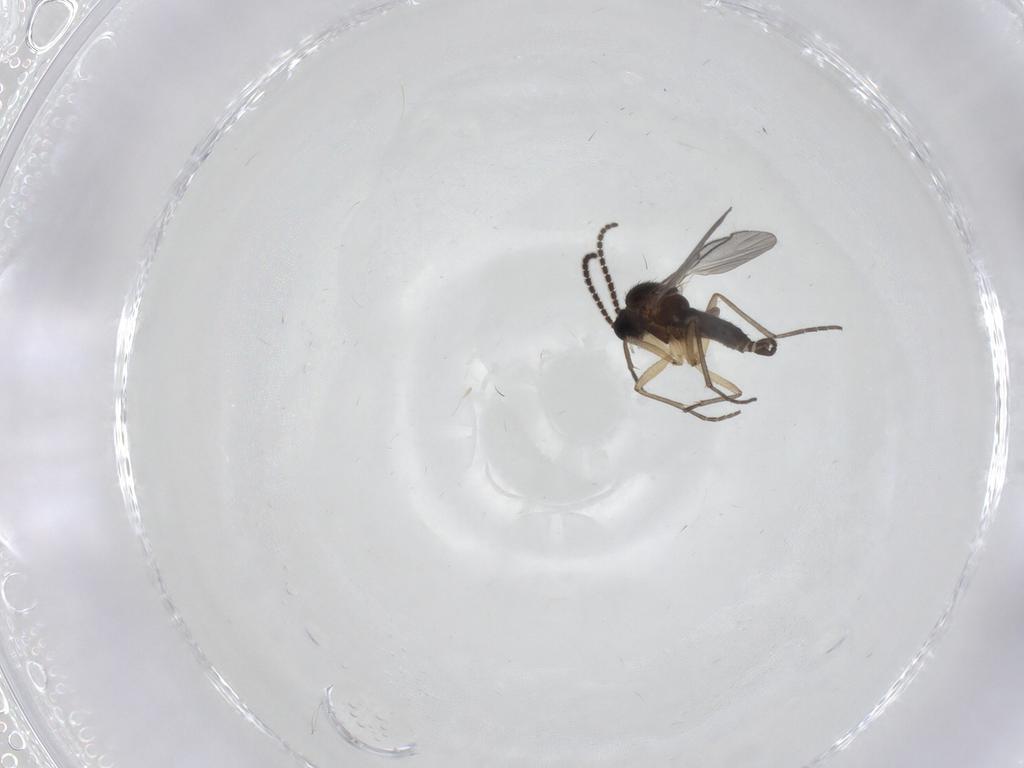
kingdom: Animalia
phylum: Arthropoda
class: Insecta
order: Diptera
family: Sciaridae
